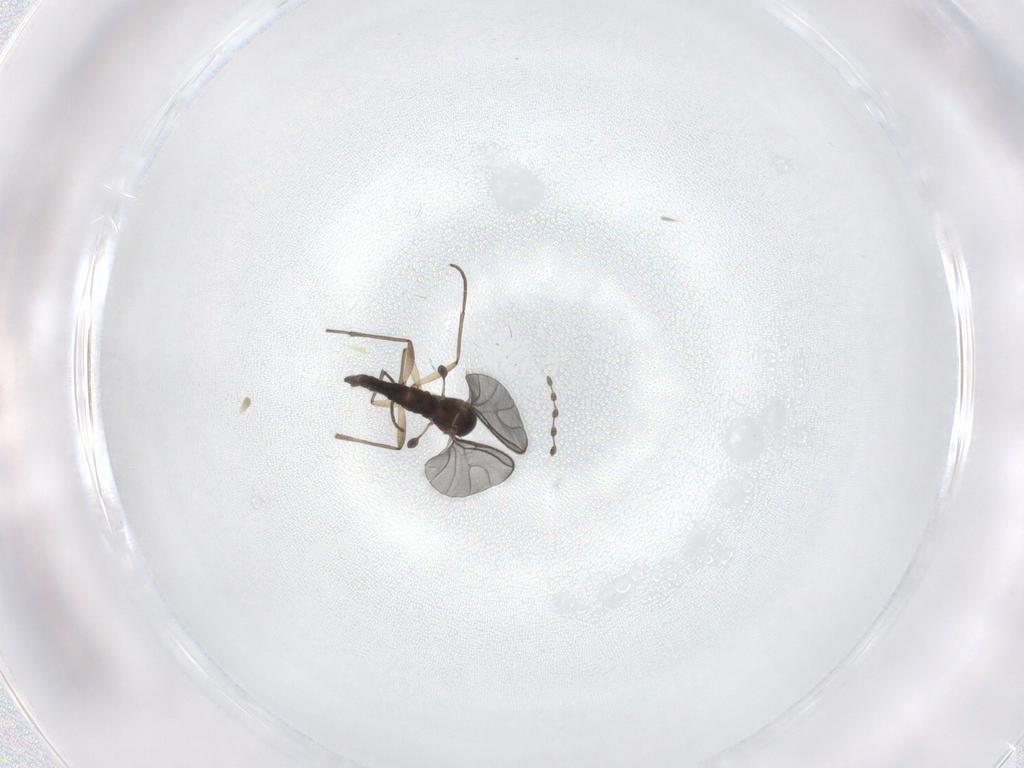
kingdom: Animalia
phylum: Arthropoda
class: Insecta
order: Diptera
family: Sciaridae
